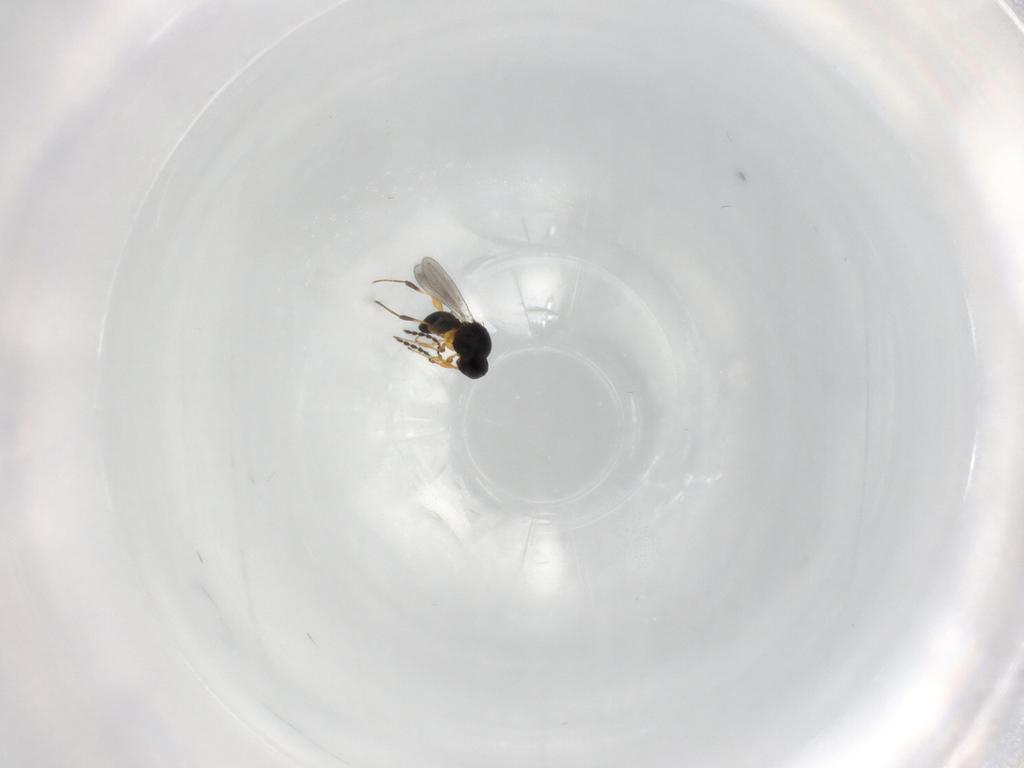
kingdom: Animalia
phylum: Arthropoda
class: Insecta
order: Hymenoptera
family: Platygastridae
